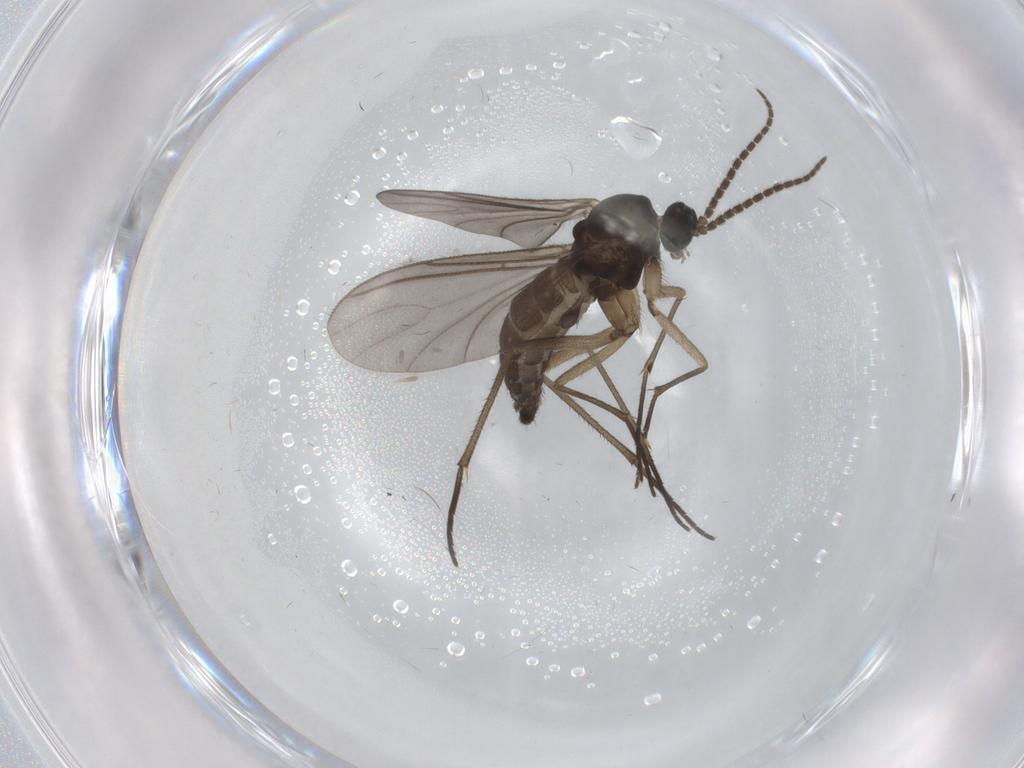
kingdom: Animalia
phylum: Arthropoda
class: Insecta
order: Diptera
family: Sciaridae
